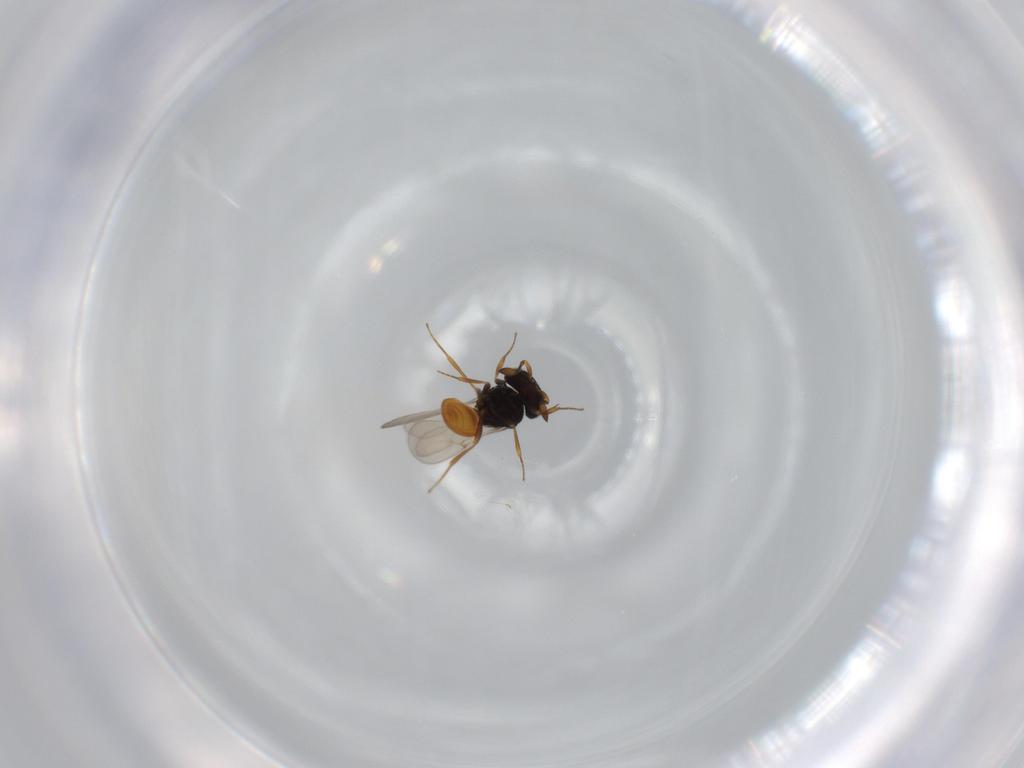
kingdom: Animalia
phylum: Arthropoda
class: Insecta
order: Hymenoptera
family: Scelionidae
